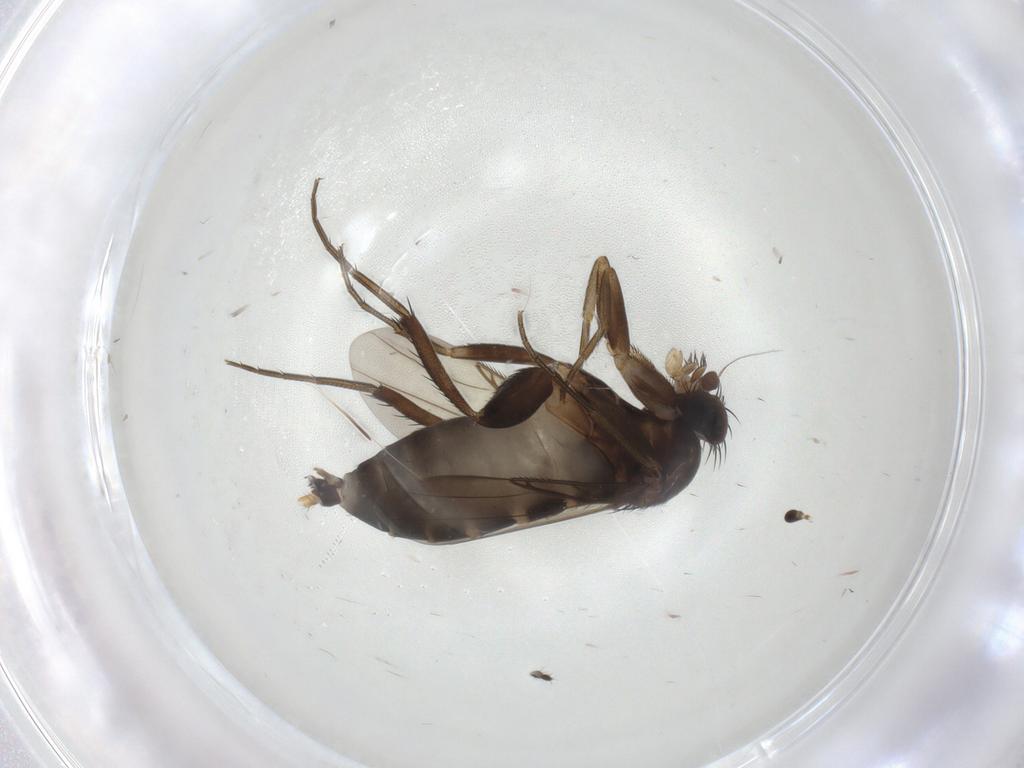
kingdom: Animalia
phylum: Arthropoda
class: Insecta
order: Diptera
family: Limoniidae
